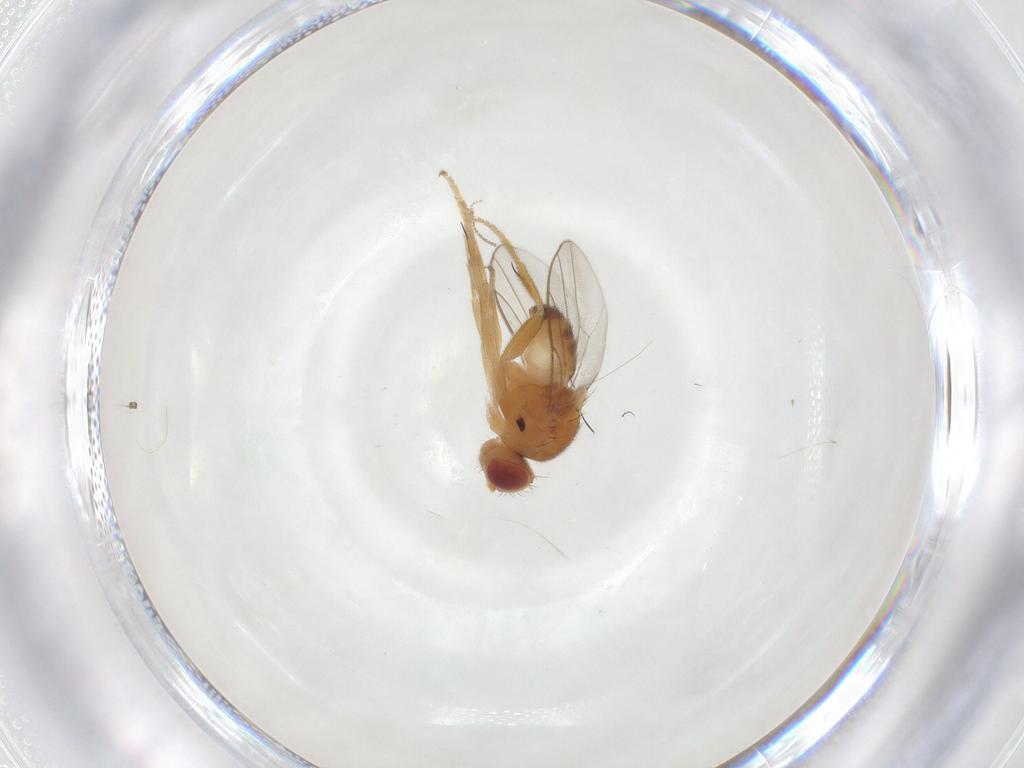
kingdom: Animalia
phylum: Arthropoda
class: Insecta
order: Diptera
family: Chloropidae
